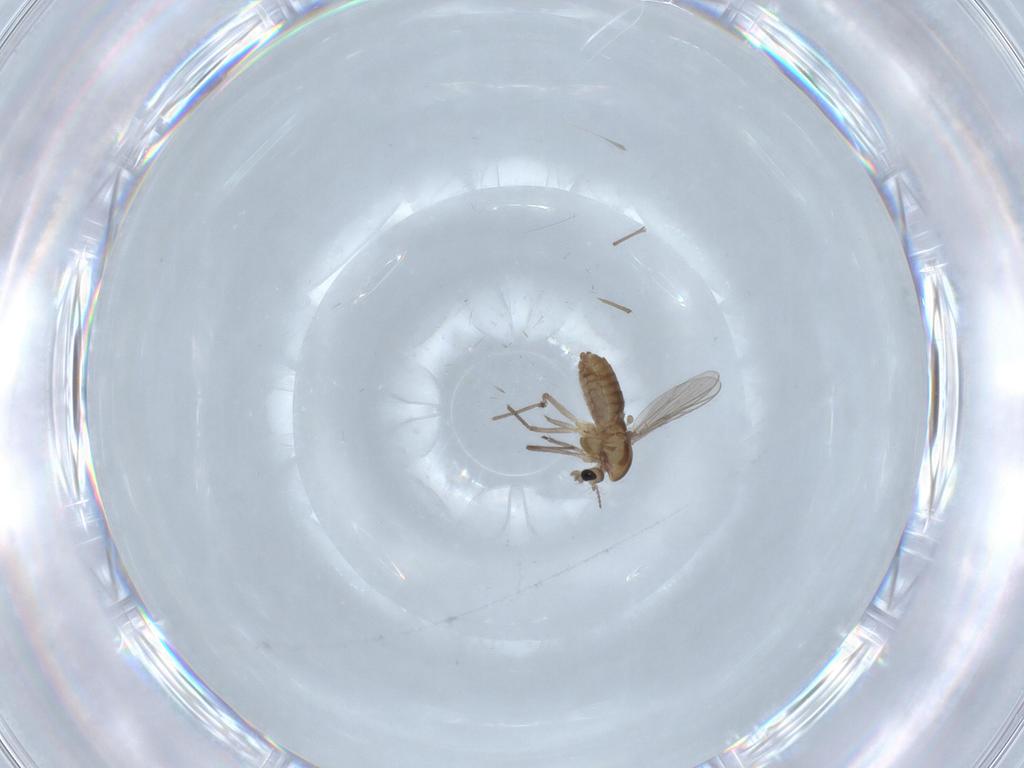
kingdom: Animalia
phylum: Arthropoda
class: Insecta
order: Diptera
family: Chironomidae
